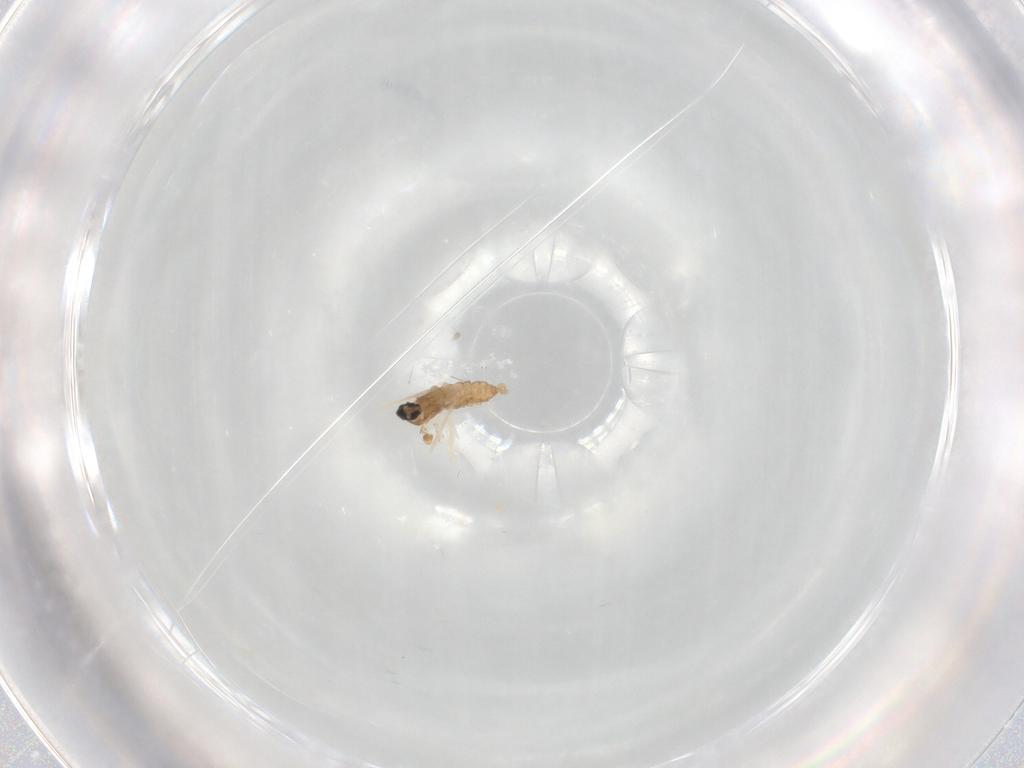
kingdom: Animalia
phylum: Arthropoda
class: Insecta
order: Diptera
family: Glossinidae
